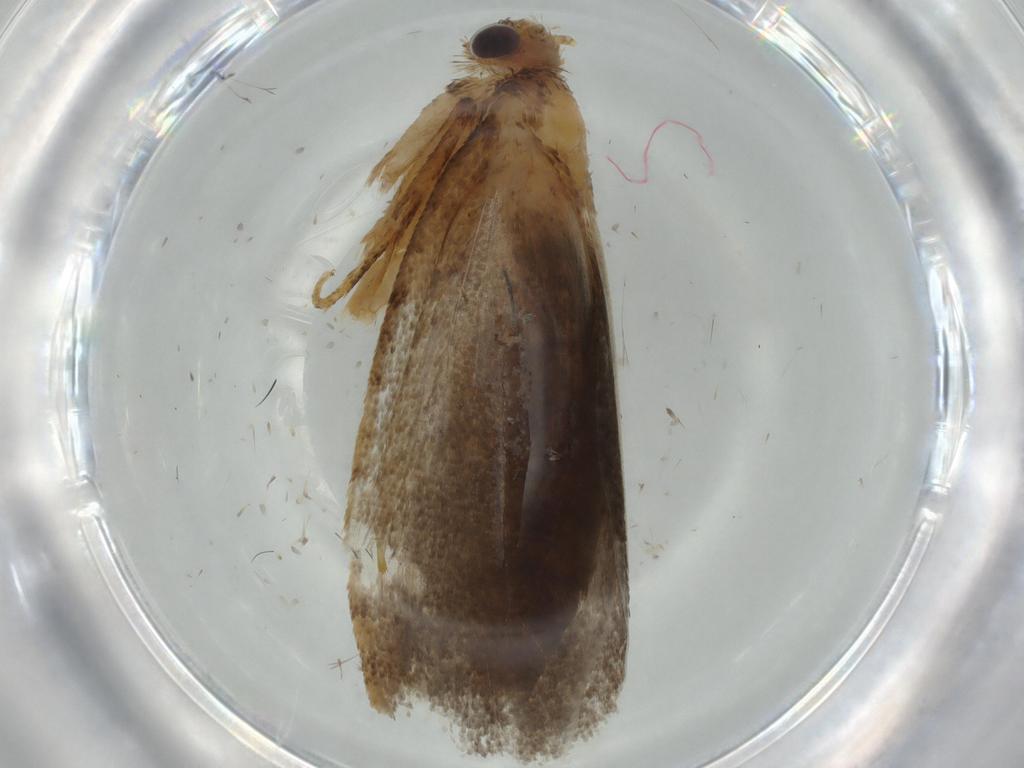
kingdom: Animalia
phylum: Arthropoda
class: Insecta
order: Lepidoptera
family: Tineidae
